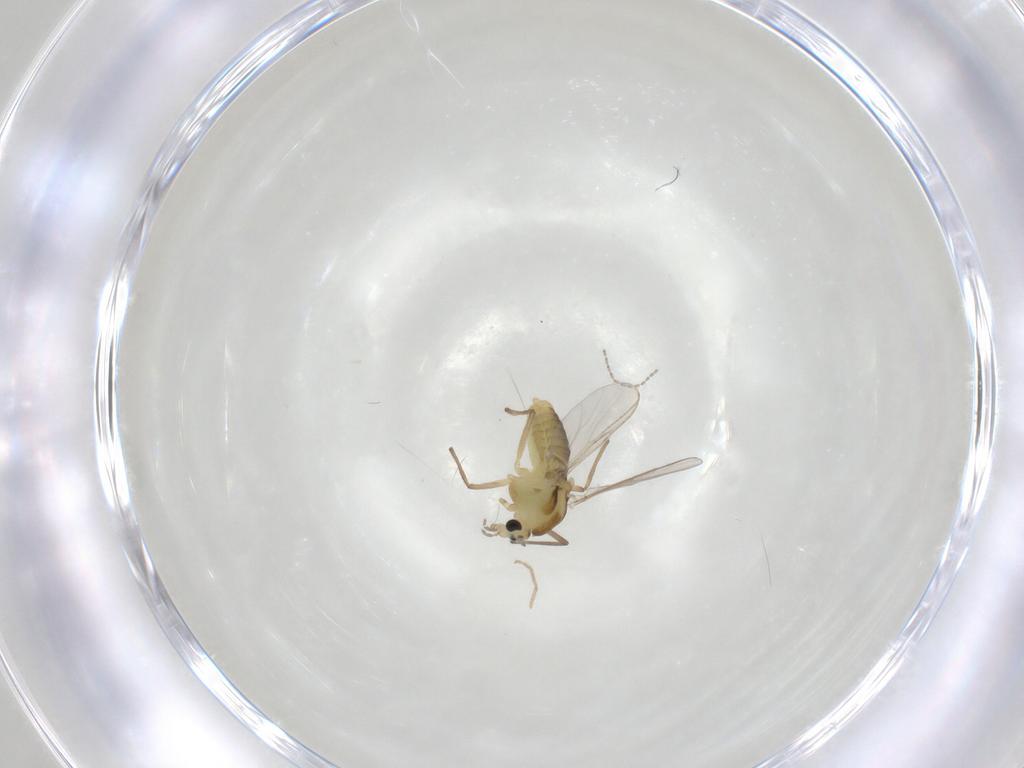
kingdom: Animalia
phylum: Arthropoda
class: Insecta
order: Diptera
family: Chironomidae
